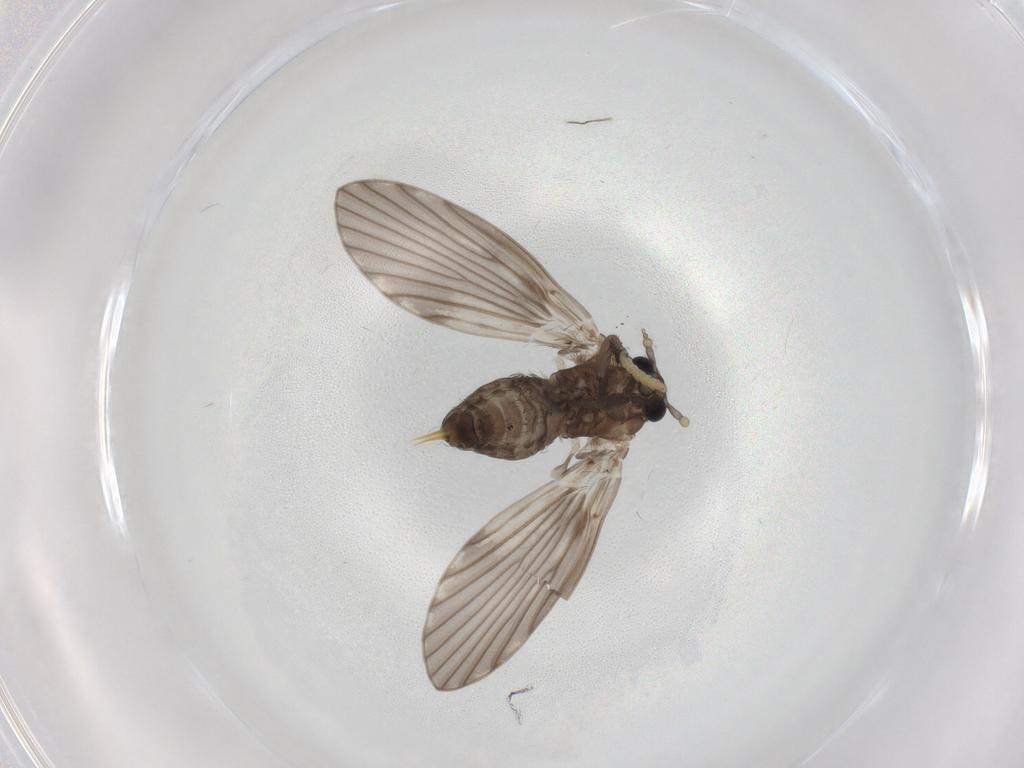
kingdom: Animalia
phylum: Arthropoda
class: Insecta
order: Diptera
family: Psychodidae
